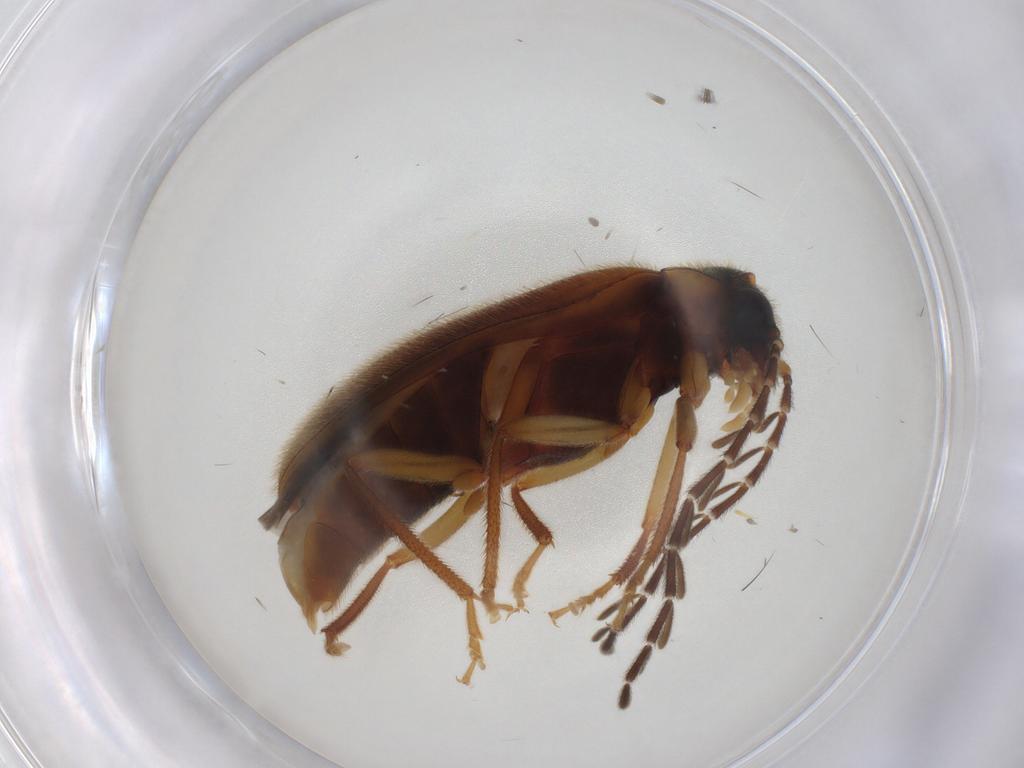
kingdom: Animalia
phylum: Arthropoda
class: Insecta
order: Coleoptera
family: Ptilodactylidae
